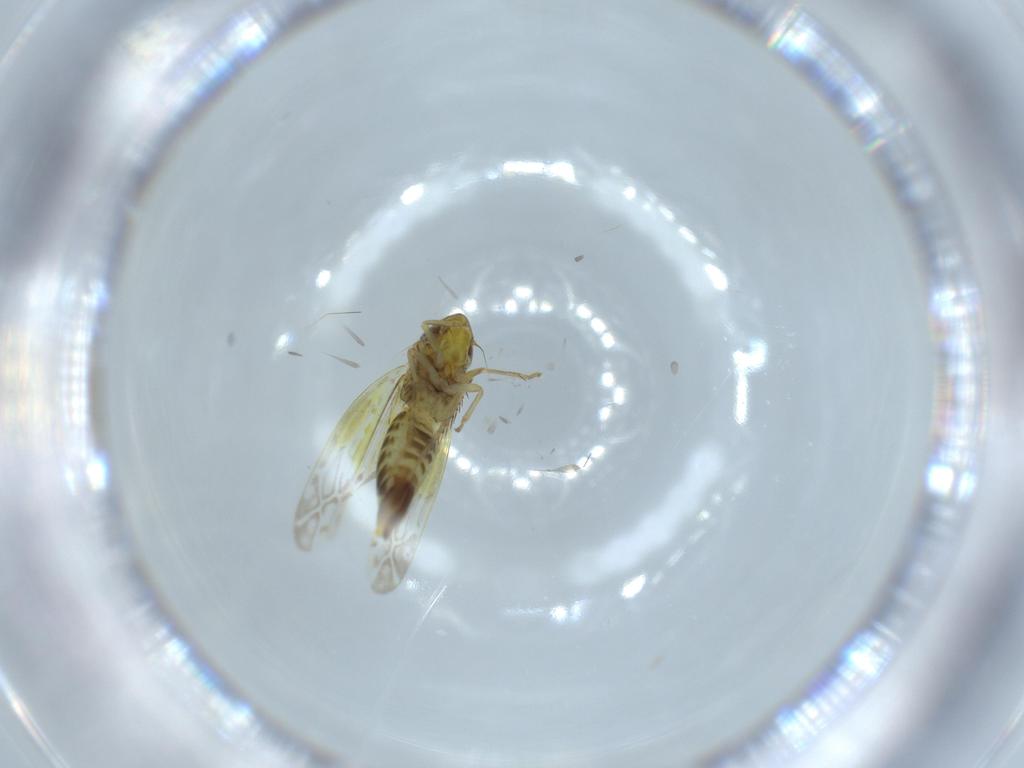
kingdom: Animalia
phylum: Arthropoda
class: Insecta
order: Hemiptera
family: Cicadellidae
